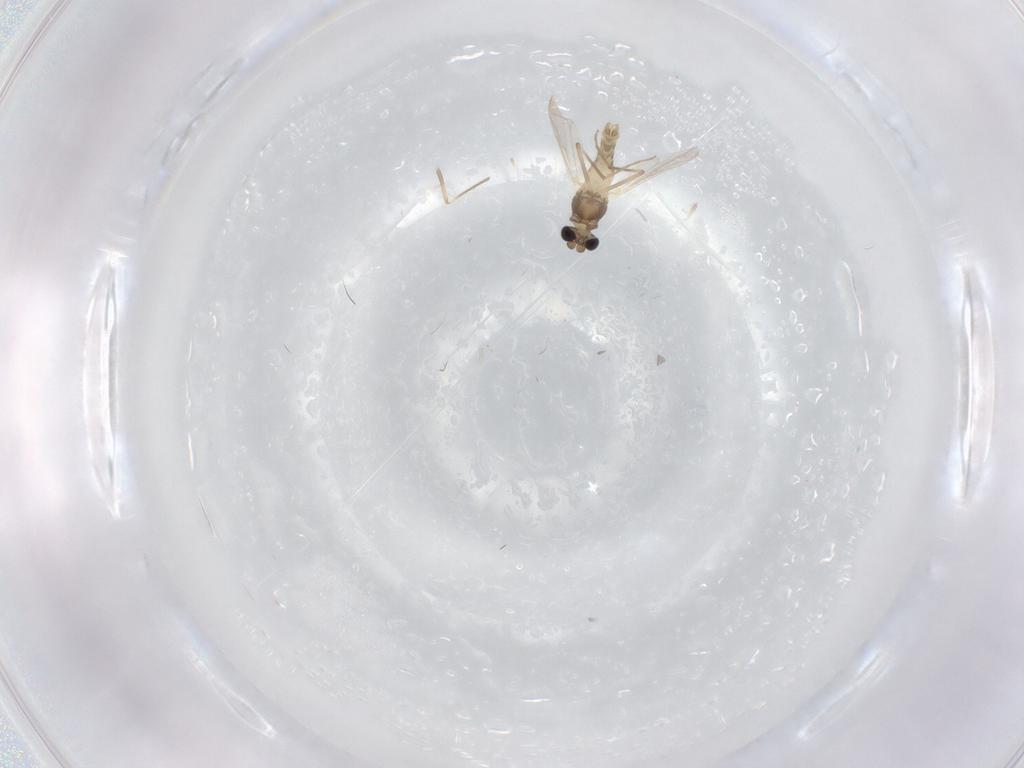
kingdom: Animalia
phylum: Arthropoda
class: Insecta
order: Diptera
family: Chironomidae
